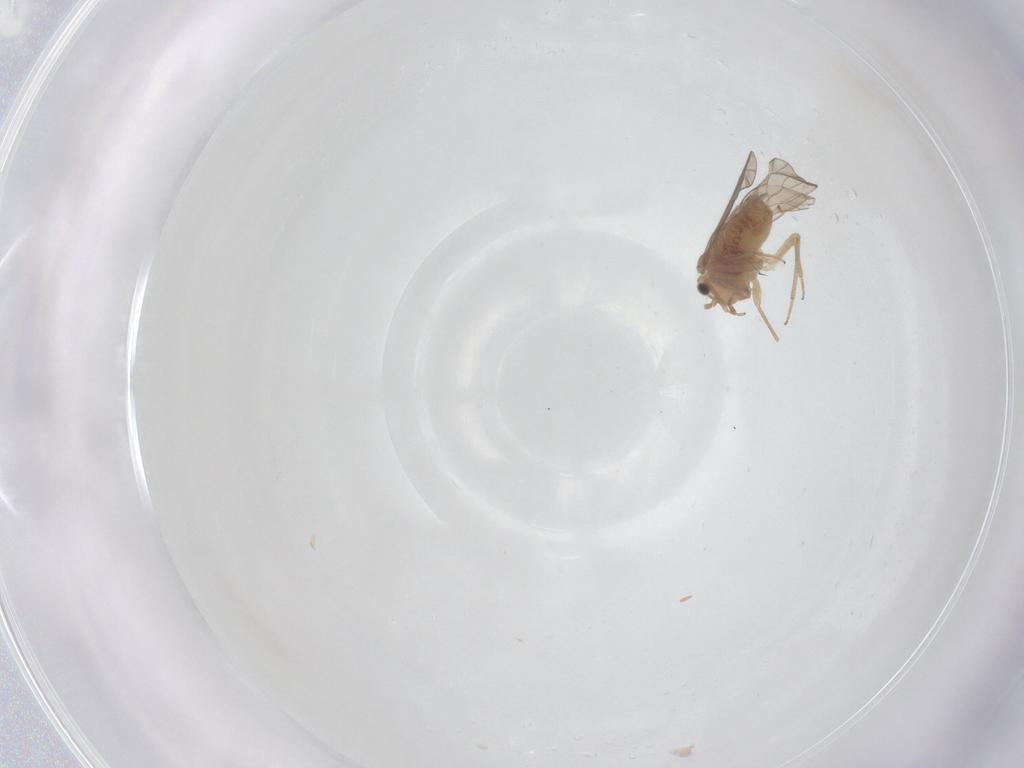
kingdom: Animalia
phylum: Arthropoda
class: Insecta
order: Psocodea
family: Ectopsocidae
